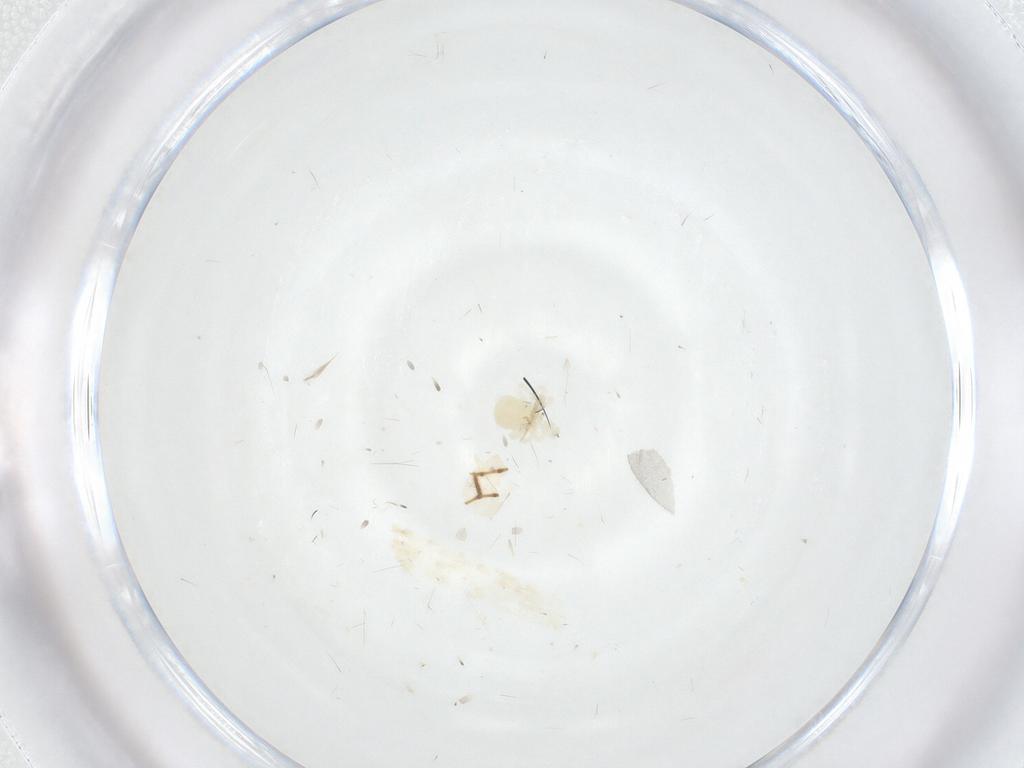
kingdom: Animalia
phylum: Arthropoda
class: Arachnida
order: Trombidiformes
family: Anystidae
